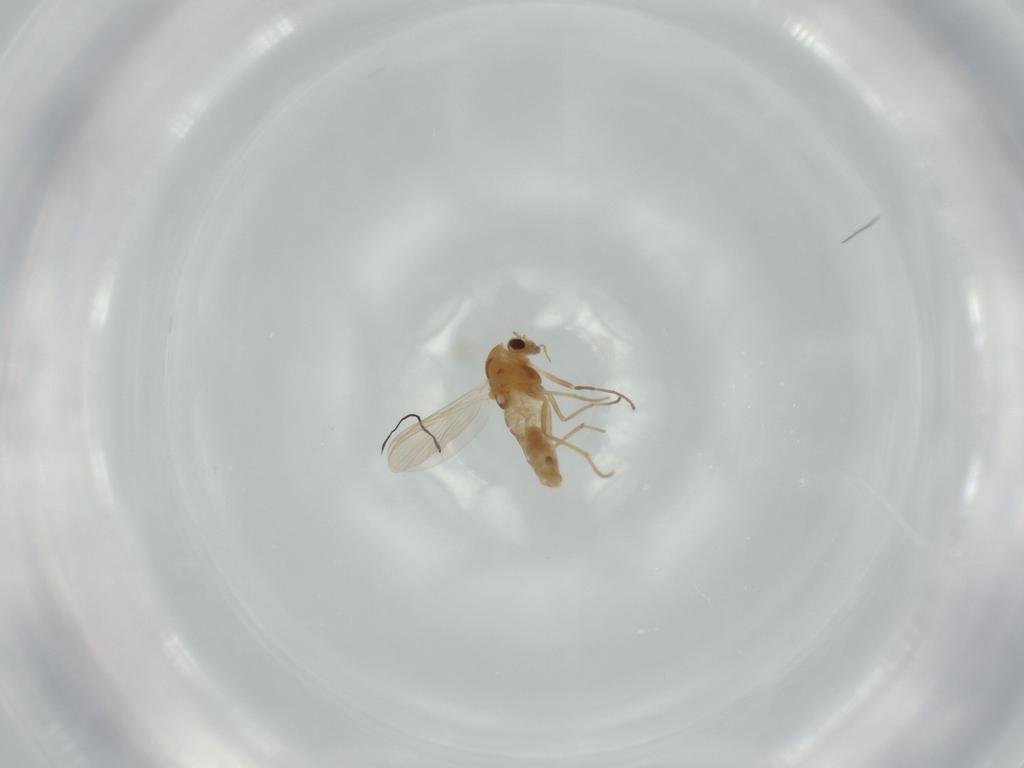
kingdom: Animalia
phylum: Arthropoda
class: Insecta
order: Diptera
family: Chironomidae
